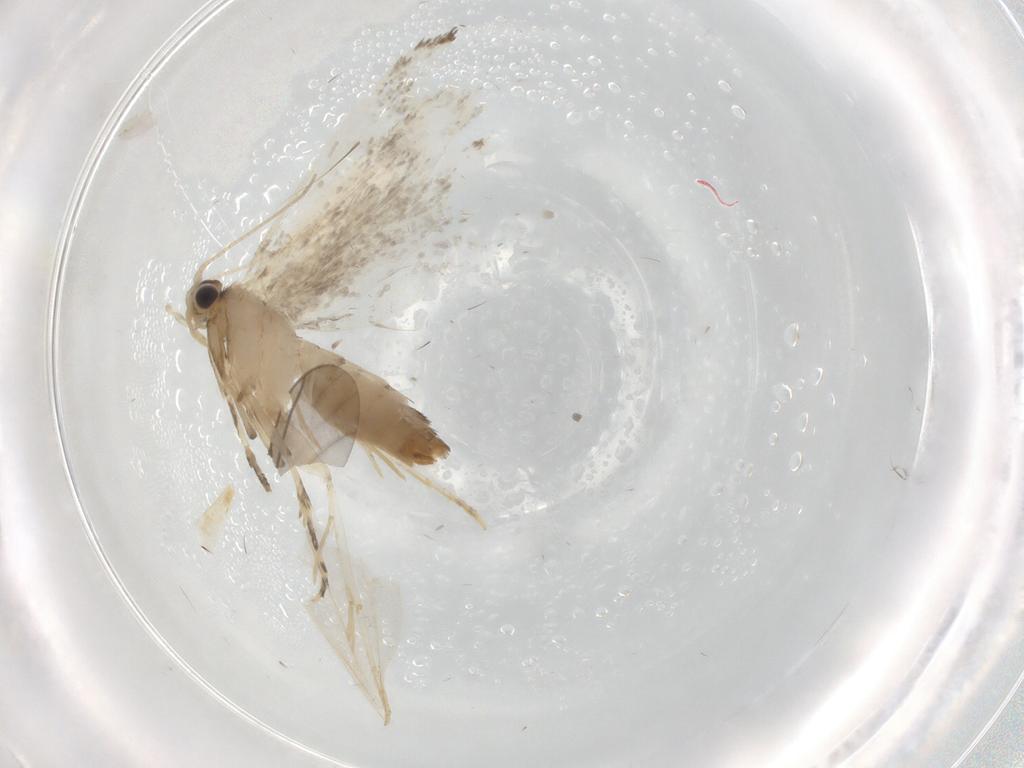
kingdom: Animalia
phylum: Arthropoda
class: Insecta
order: Lepidoptera
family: Tineidae
